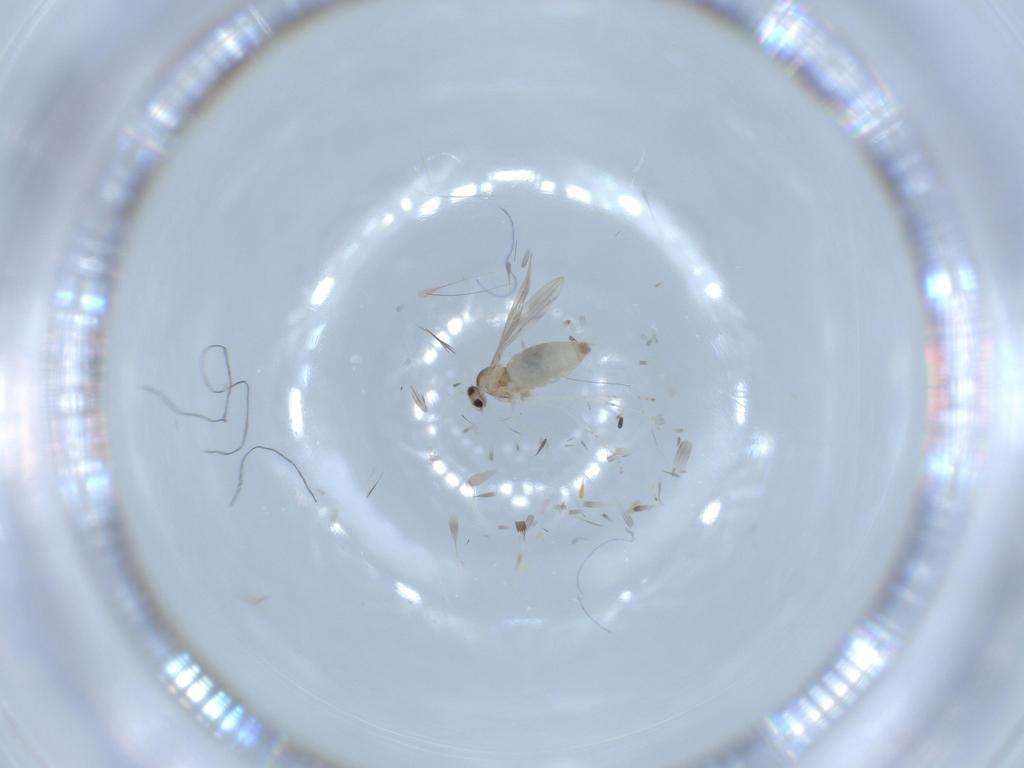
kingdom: Animalia
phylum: Arthropoda
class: Insecta
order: Diptera
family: Cecidomyiidae
